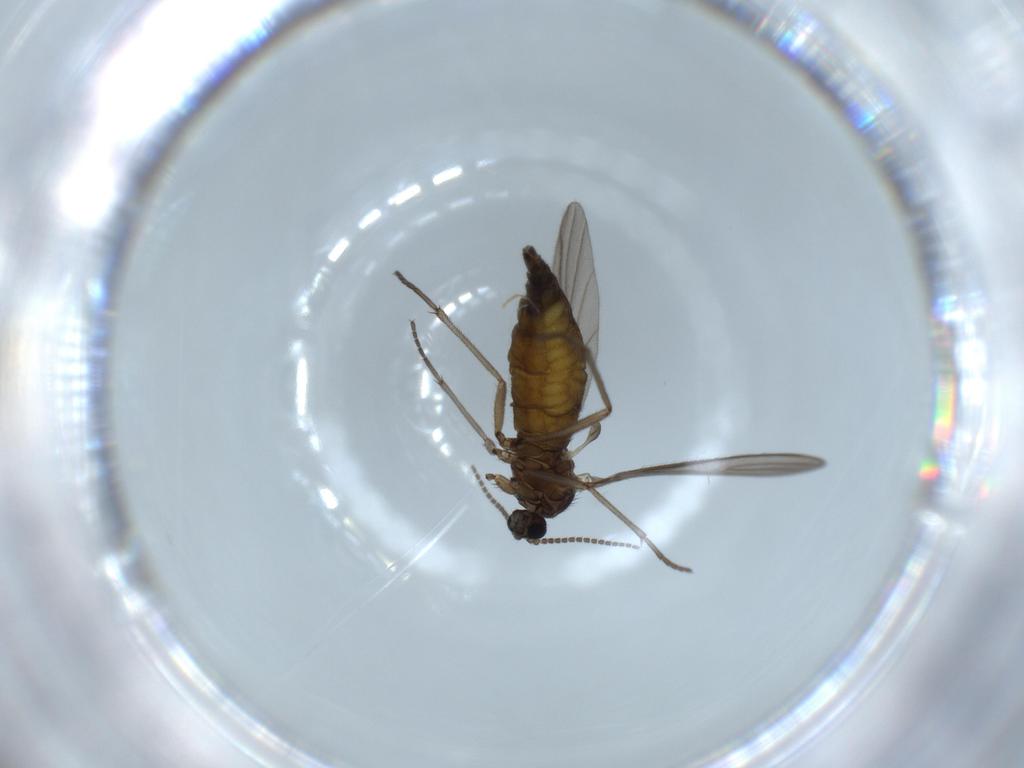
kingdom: Animalia
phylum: Arthropoda
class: Insecta
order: Diptera
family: Sciaridae
